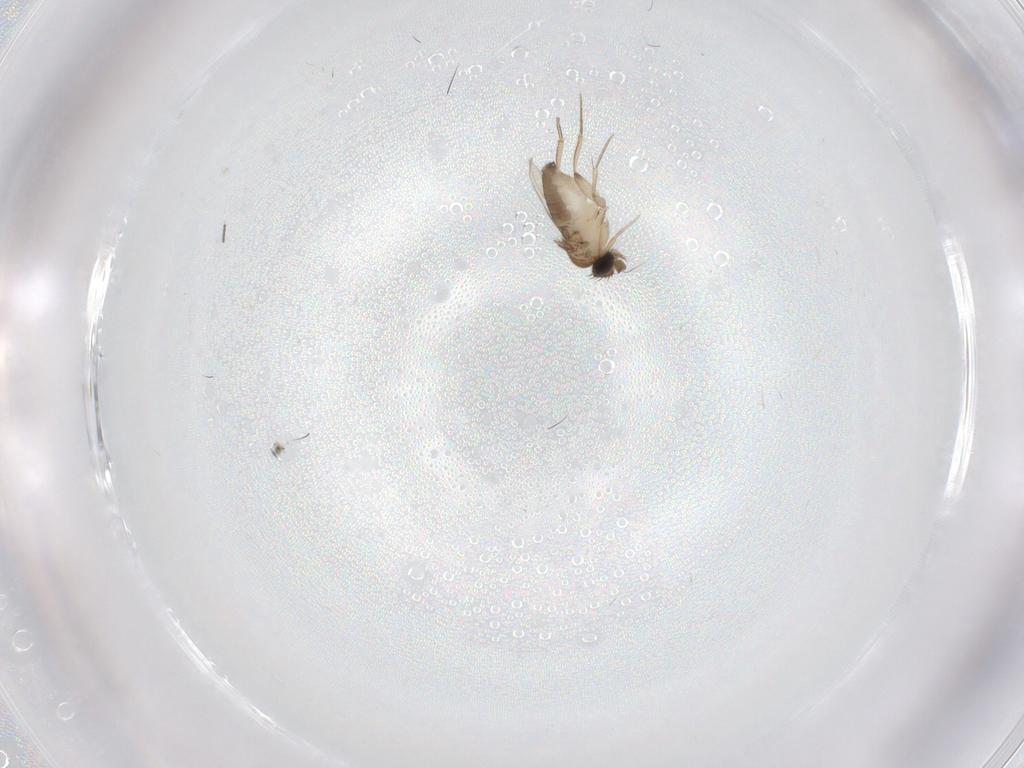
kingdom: Animalia
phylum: Arthropoda
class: Insecta
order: Diptera
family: Phoridae
